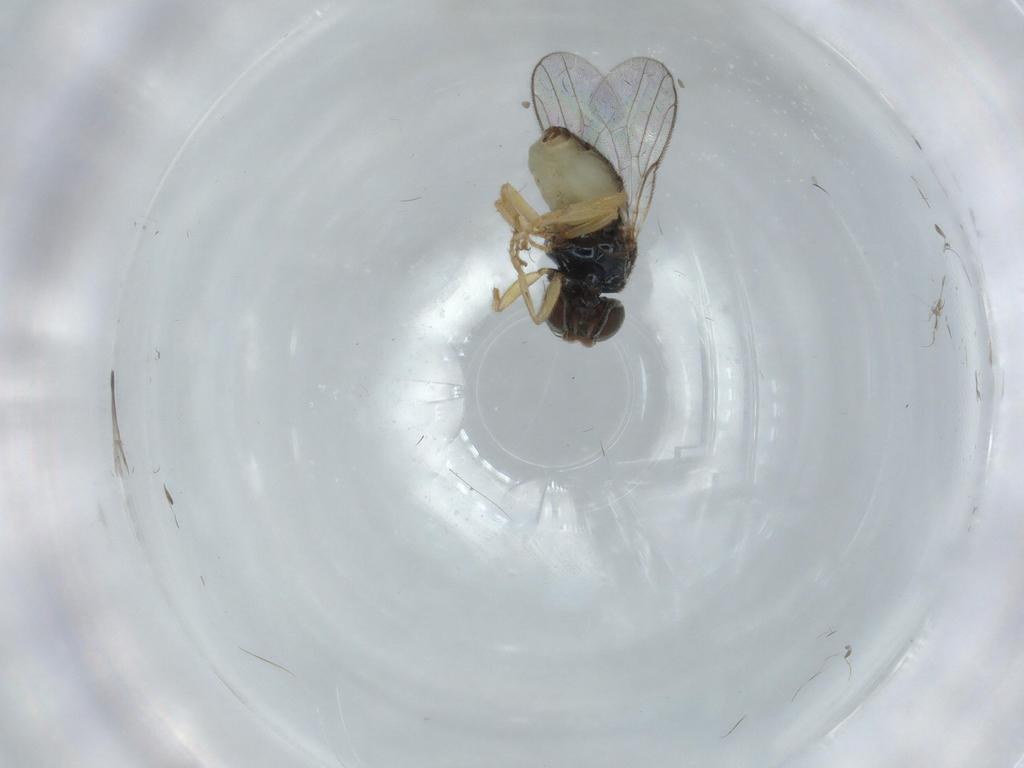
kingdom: Animalia
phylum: Arthropoda
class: Insecta
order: Diptera
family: Chloropidae
